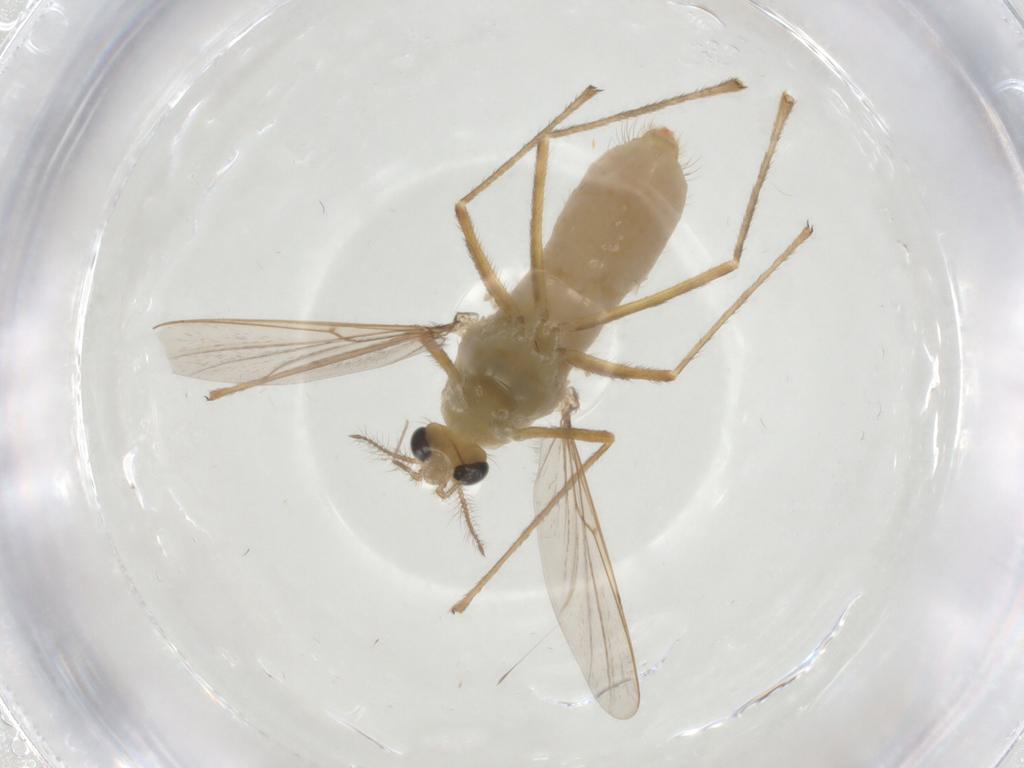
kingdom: Animalia
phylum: Arthropoda
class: Insecta
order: Diptera
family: Chironomidae
